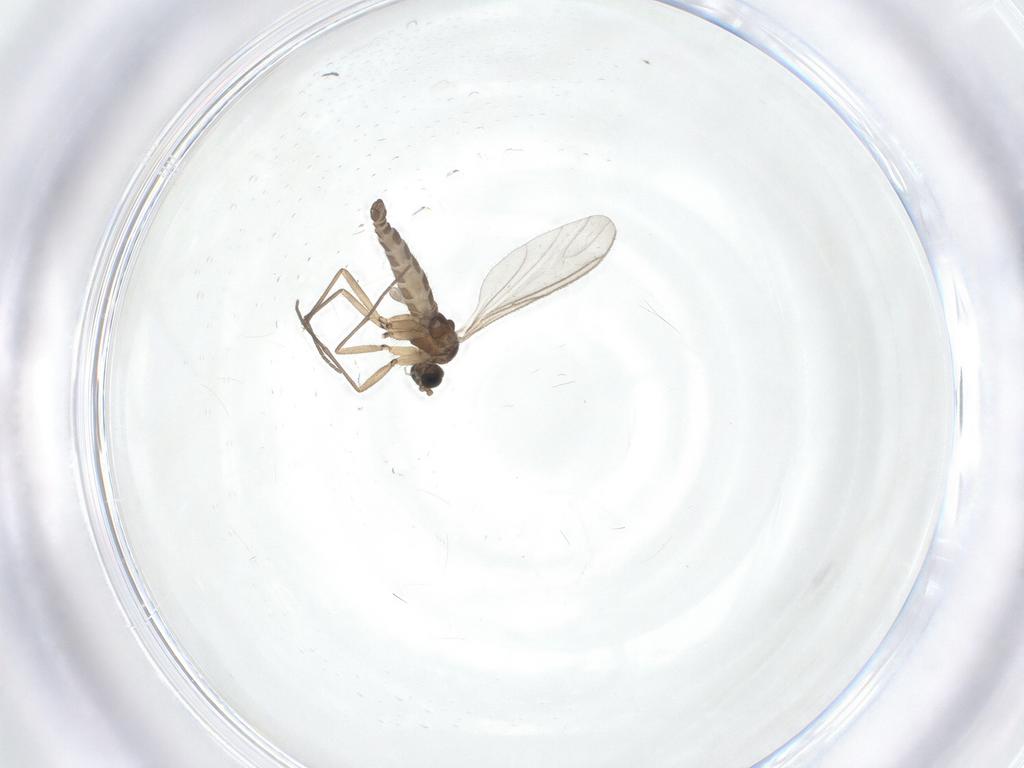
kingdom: Animalia
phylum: Arthropoda
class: Insecta
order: Diptera
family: Sciaridae
